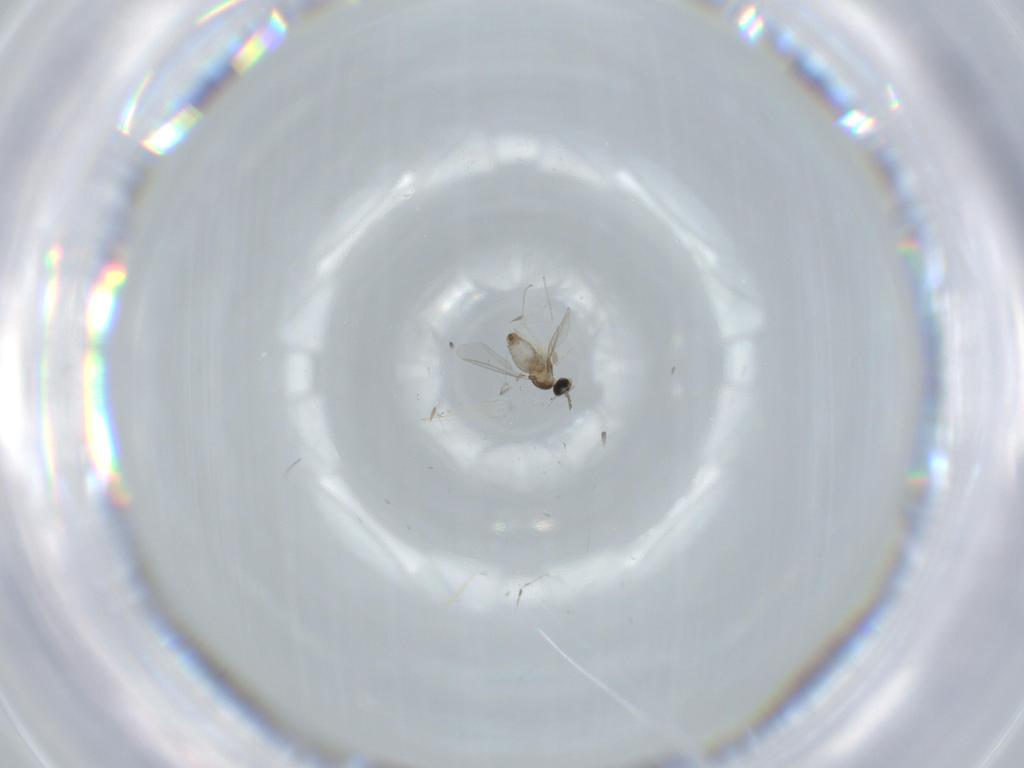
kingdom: Animalia
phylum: Arthropoda
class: Insecta
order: Diptera
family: Cecidomyiidae
